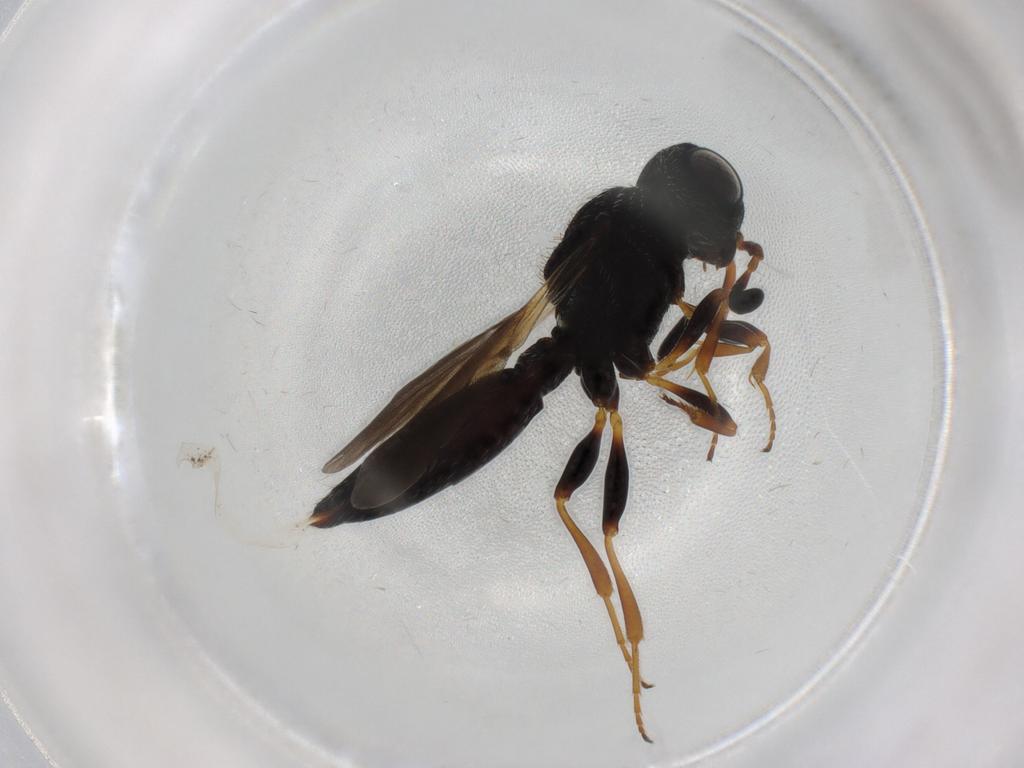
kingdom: Animalia
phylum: Arthropoda
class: Insecta
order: Hymenoptera
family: Scelionidae
